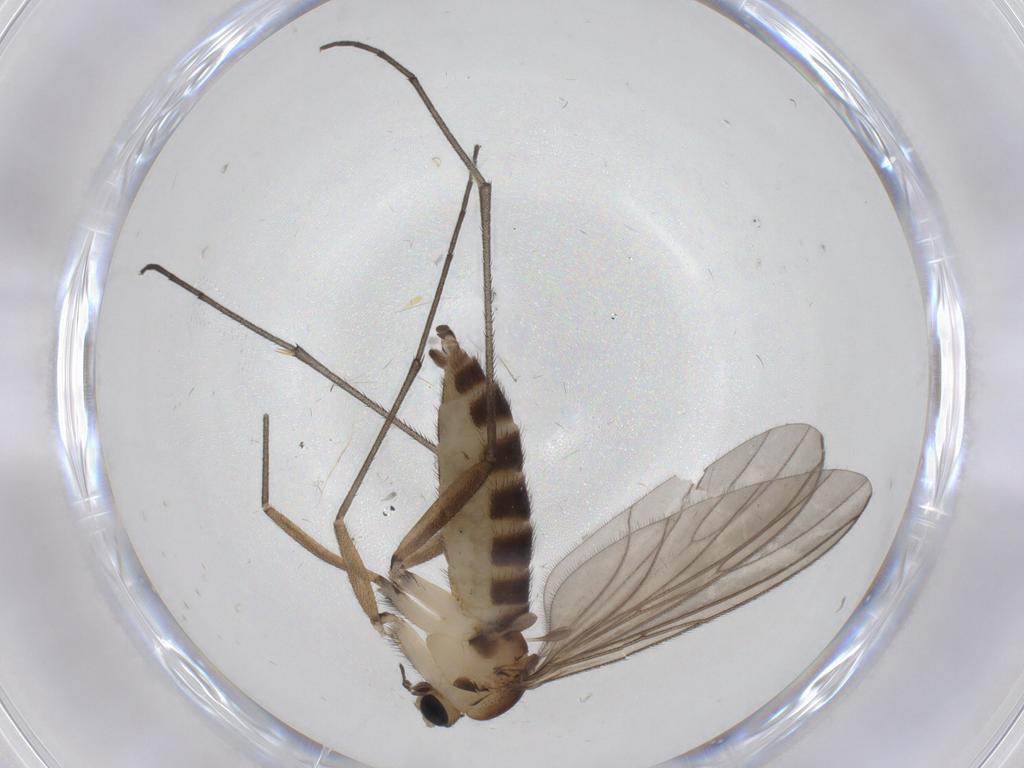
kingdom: Animalia
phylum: Arthropoda
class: Insecta
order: Diptera
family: Sciaridae
